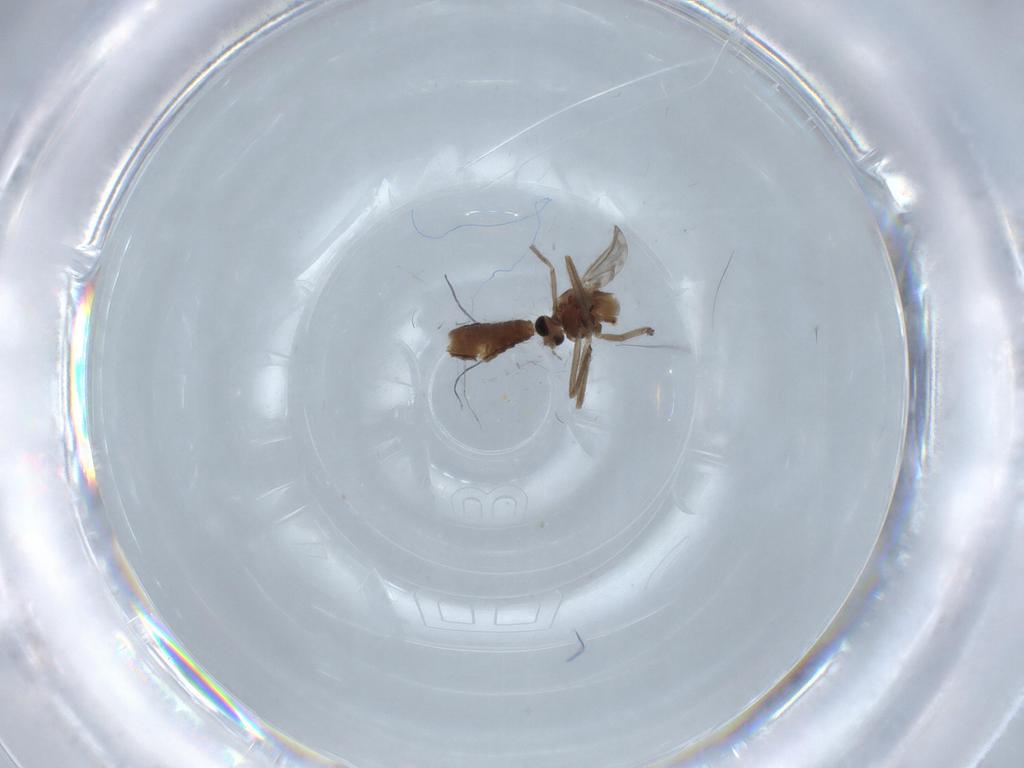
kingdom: Animalia
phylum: Arthropoda
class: Insecta
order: Diptera
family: Chironomidae
